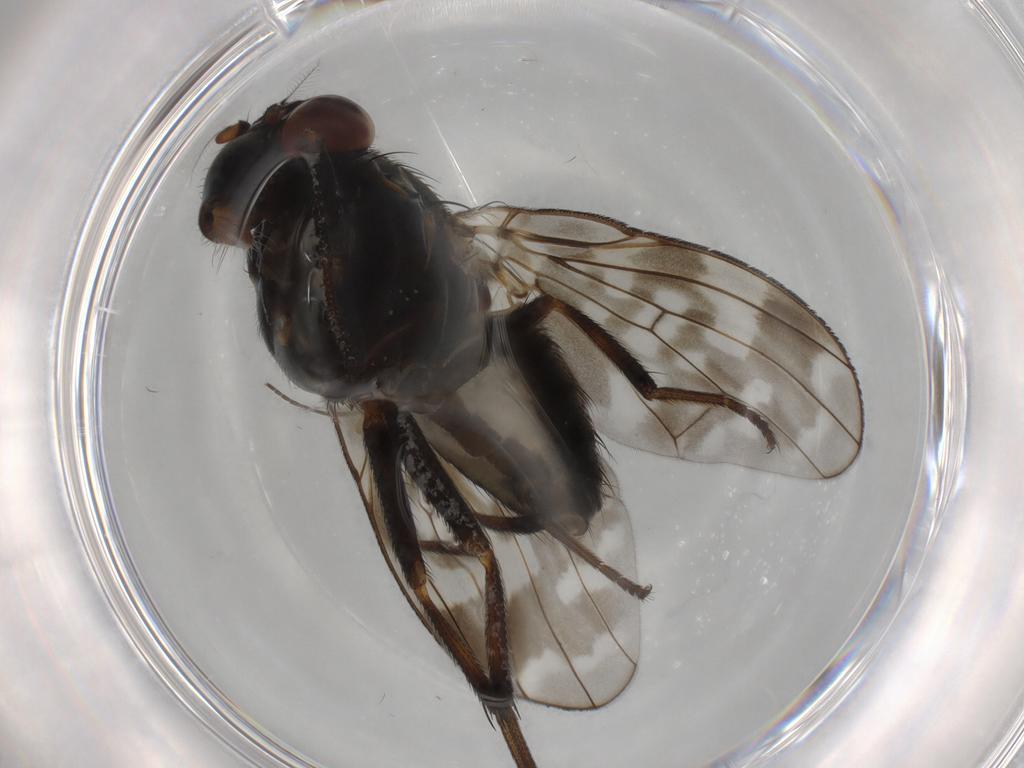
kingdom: Animalia
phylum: Arthropoda
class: Insecta
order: Diptera
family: Sciaridae
